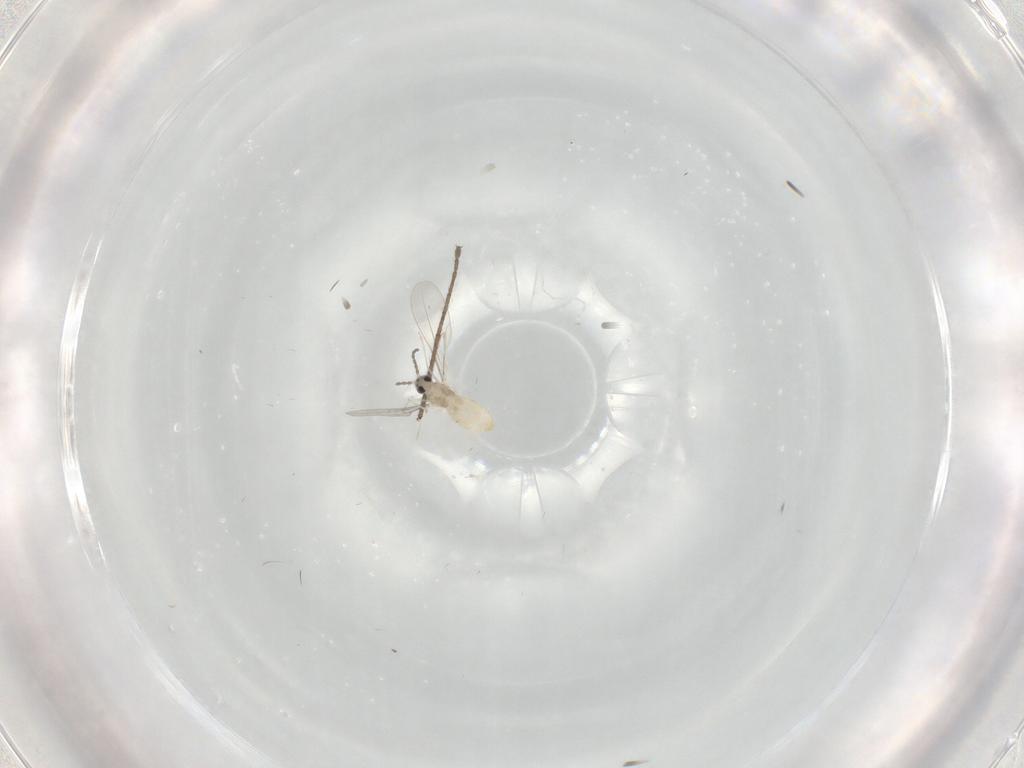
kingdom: Animalia
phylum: Arthropoda
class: Insecta
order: Diptera
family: Cecidomyiidae
